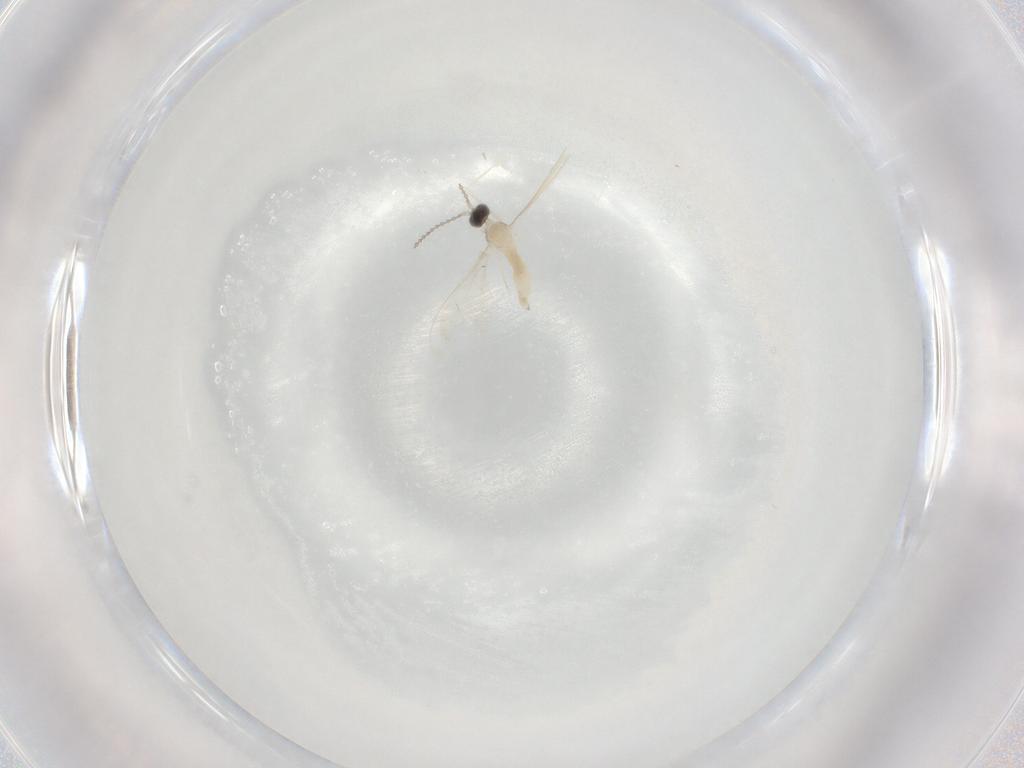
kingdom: Animalia
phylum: Arthropoda
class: Insecta
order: Diptera
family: Cecidomyiidae
